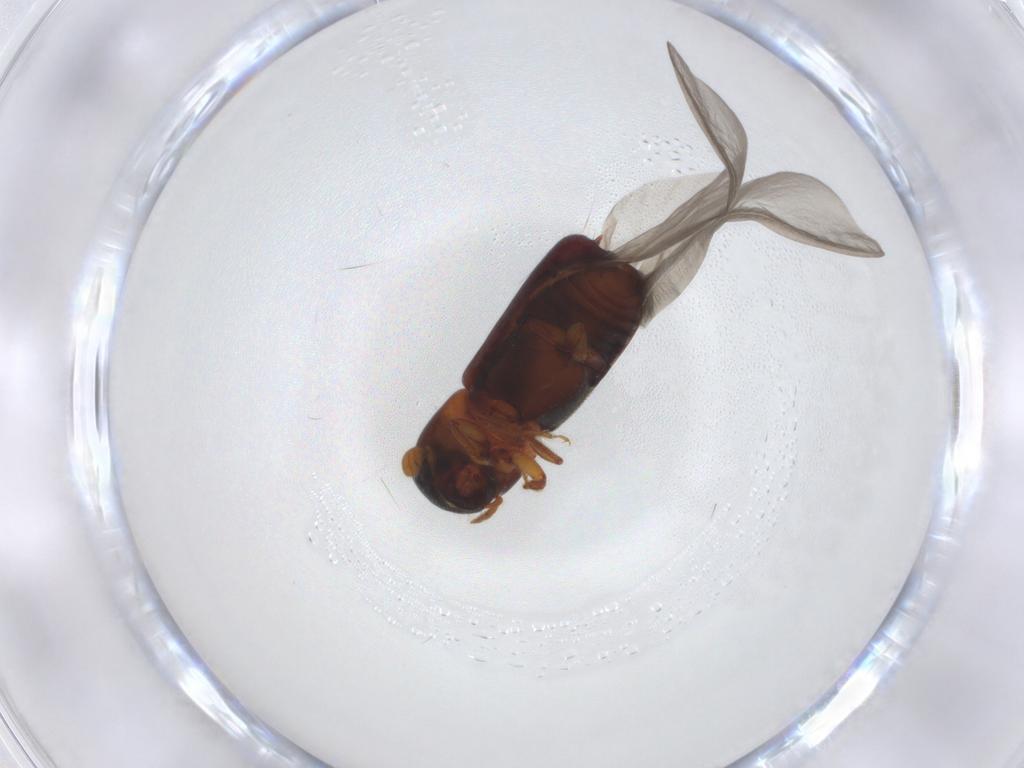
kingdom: Animalia
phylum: Arthropoda
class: Insecta
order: Coleoptera
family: Curculionidae
